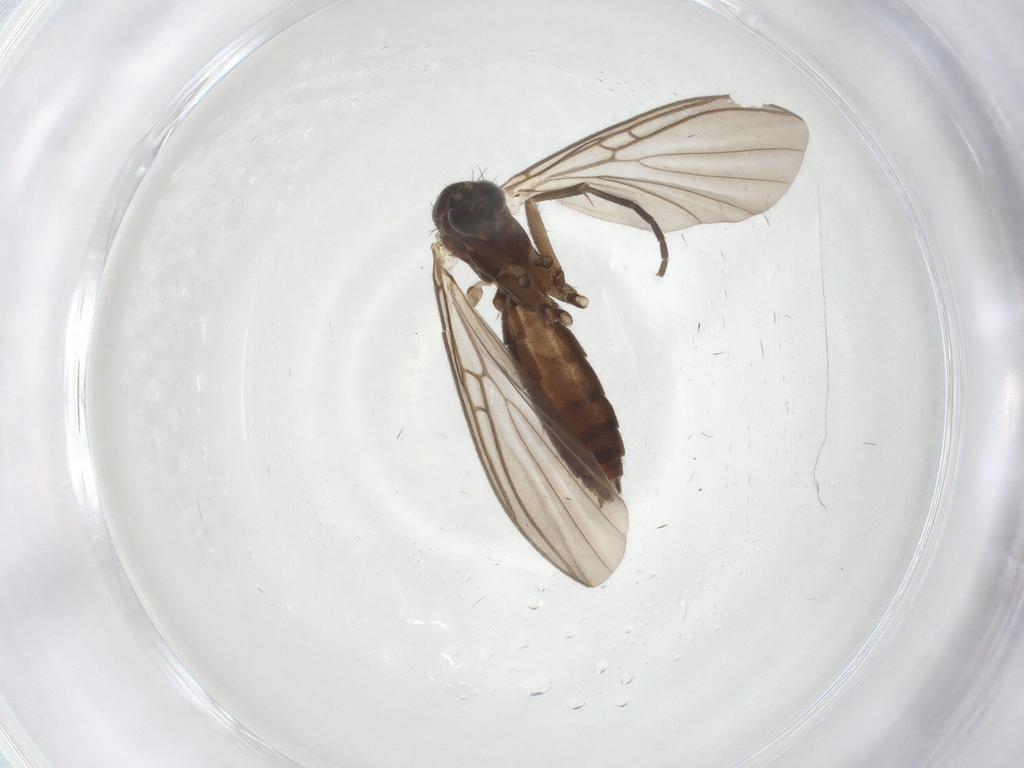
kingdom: Animalia
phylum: Arthropoda
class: Insecta
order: Diptera
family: Mycetophilidae
